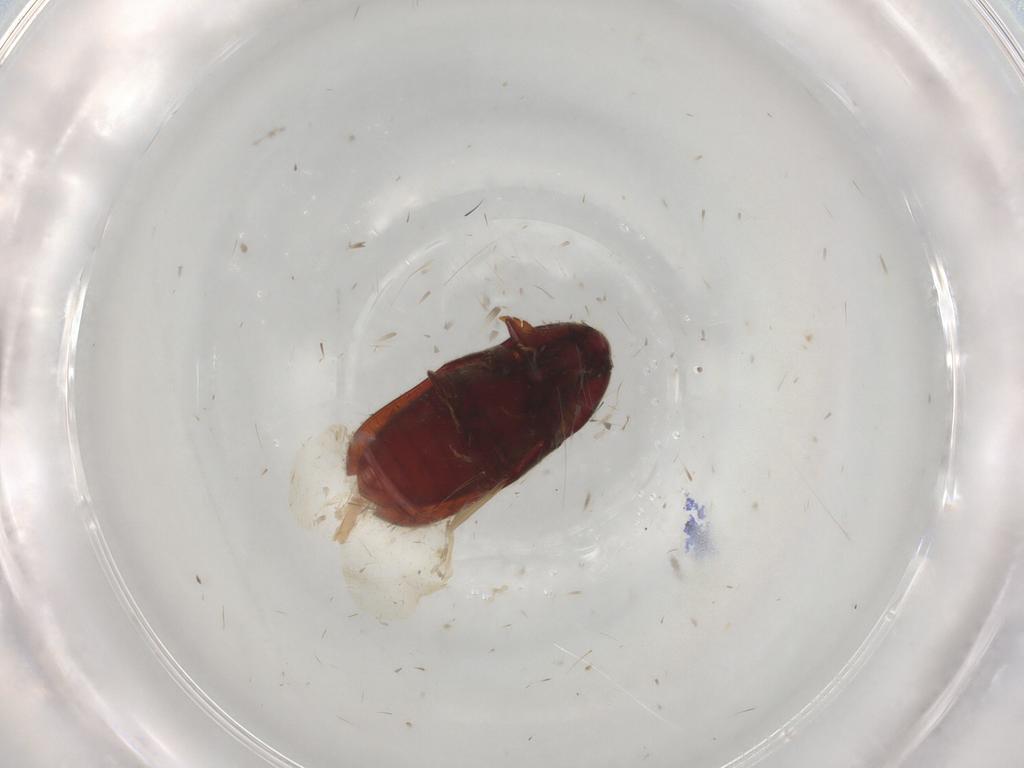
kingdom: Animalia
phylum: Arthropoda
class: Insecta
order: Coleoptera
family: Throscidae
